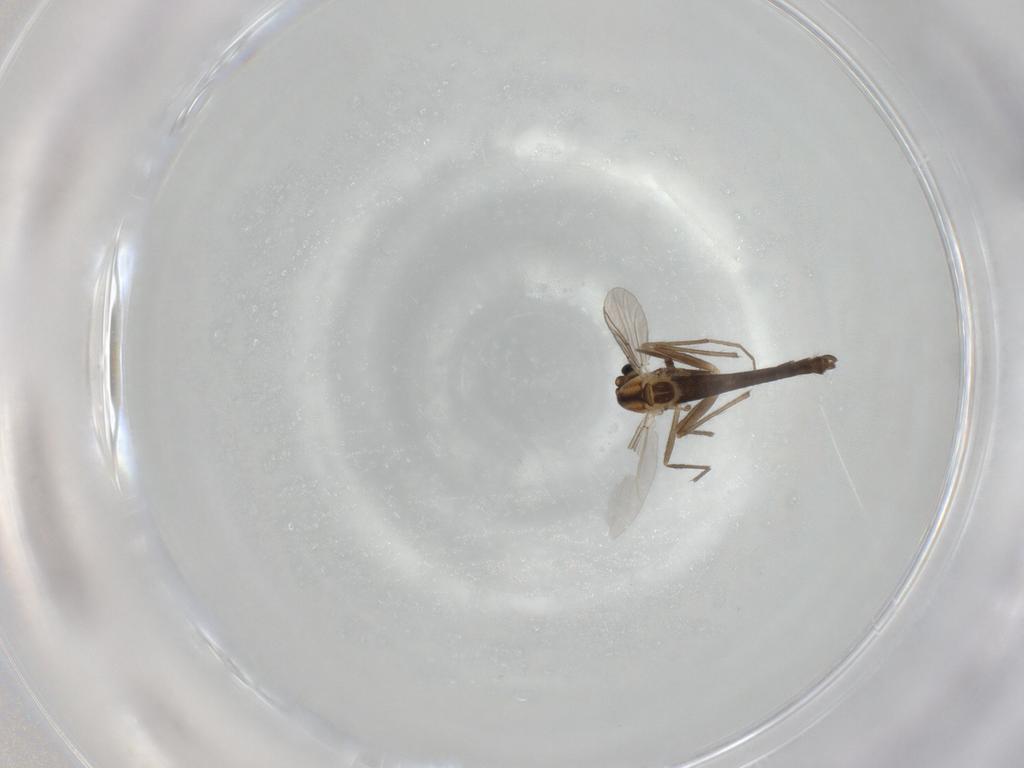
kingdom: Animalia
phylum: Arthropoda
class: Insecta
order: Diptera
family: Chironomidae
